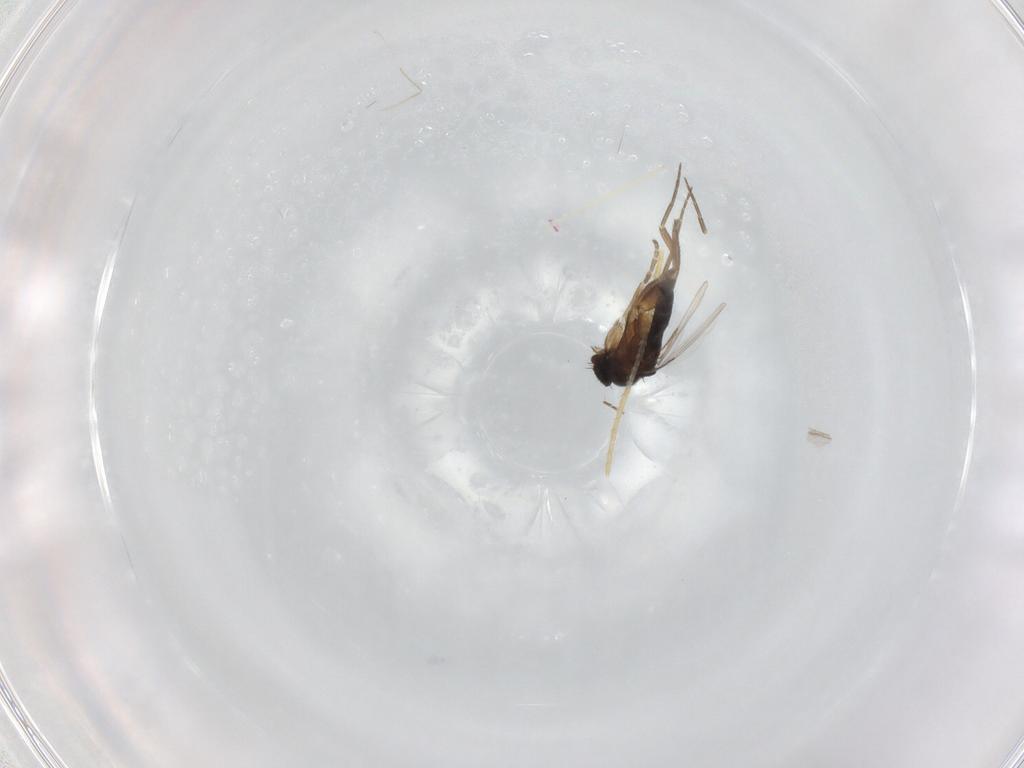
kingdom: Animalia
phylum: Arthropoda
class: Insecta
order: Diptera
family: Phoridae
